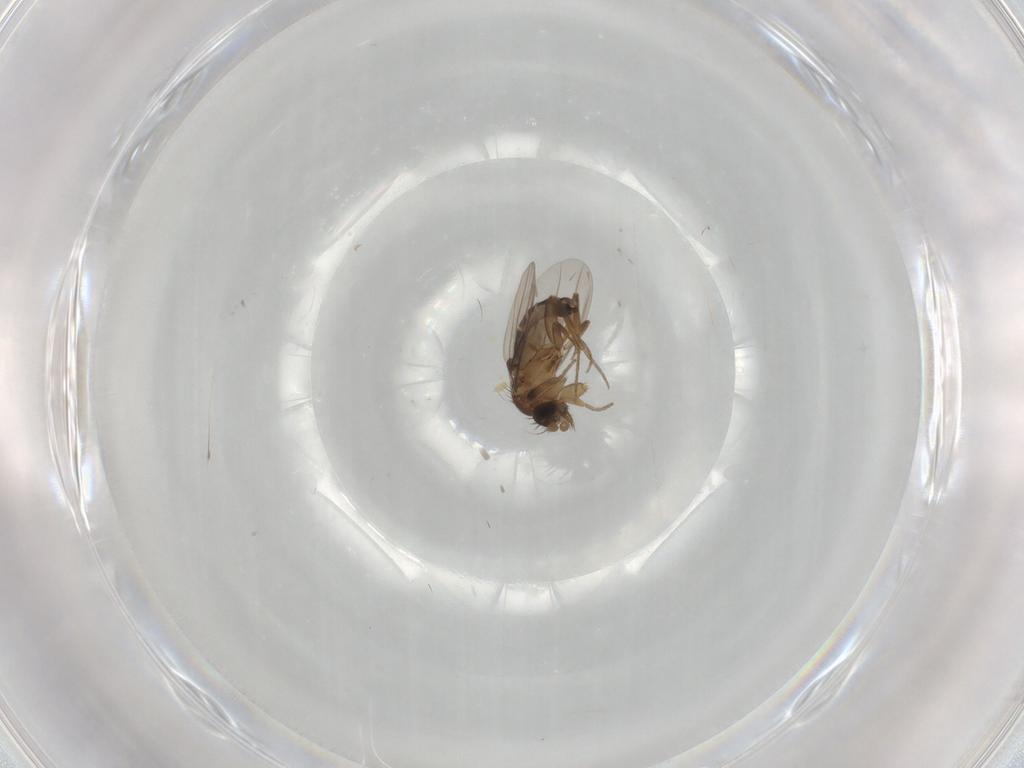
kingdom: Animalia
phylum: Arthropoda
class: Insecta
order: Diptera
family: Phoridae
